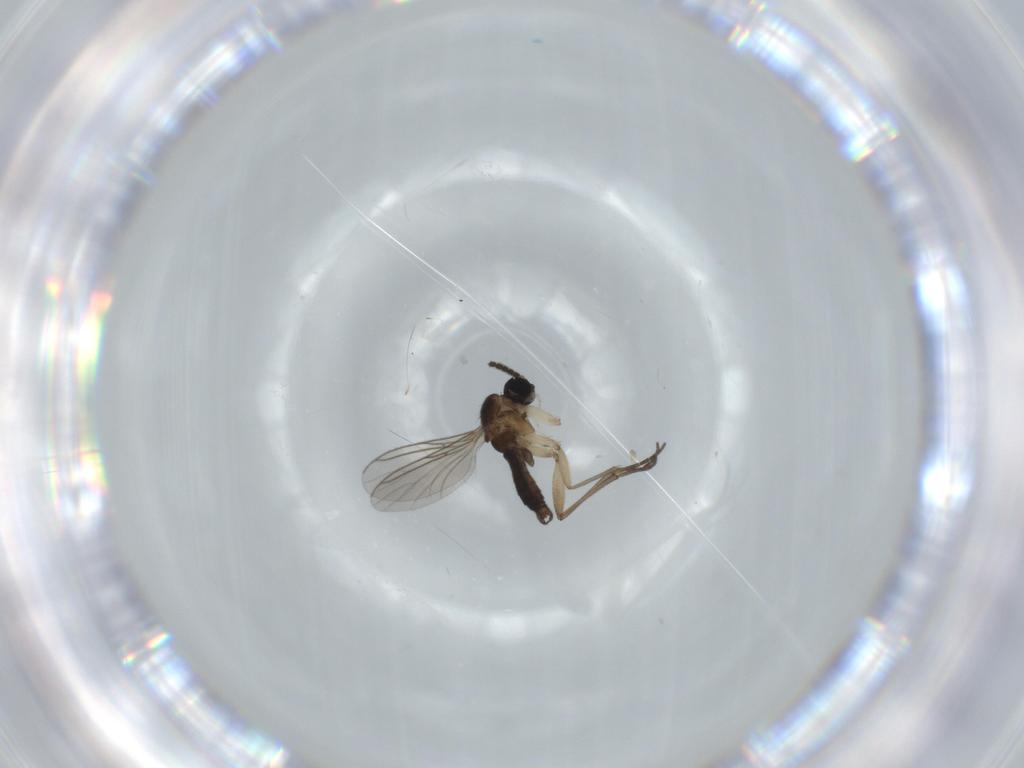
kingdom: Animalia
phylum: Arthropoda
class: Insecta
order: Diptera
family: Sciaridae
